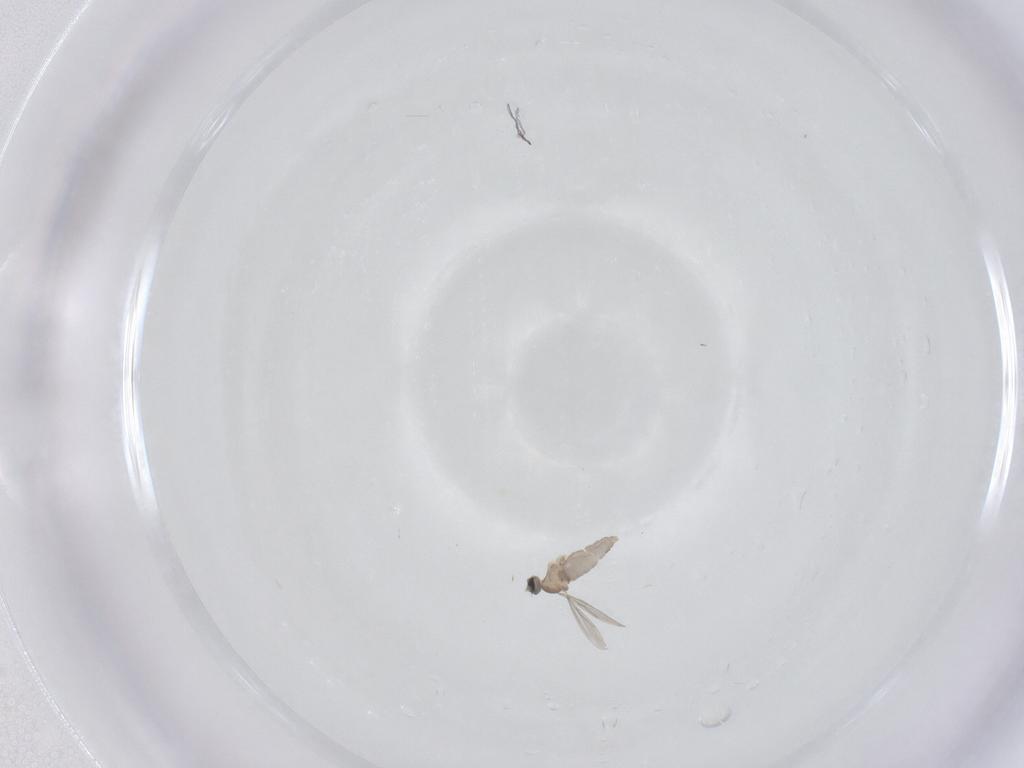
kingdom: Animalia
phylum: Arthropoda
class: Insecta
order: Diptera
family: Cecidomyiidae
